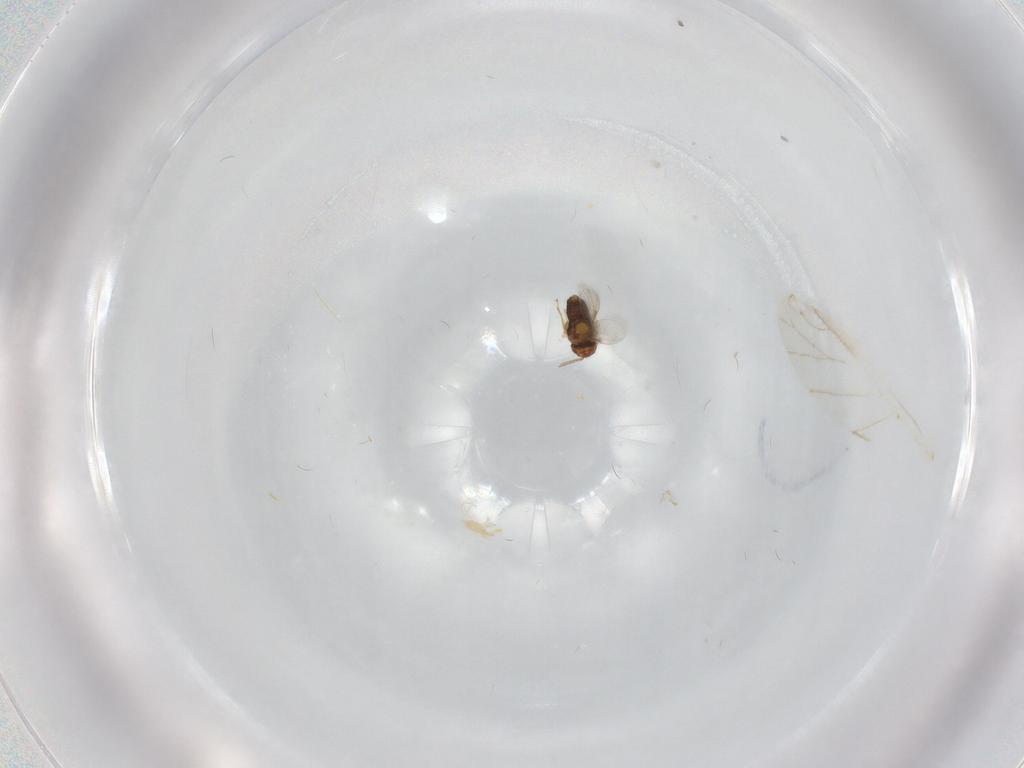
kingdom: Animalia
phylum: Arthropoda
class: Insecta
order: Hymenoptera
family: Aphelinidae
